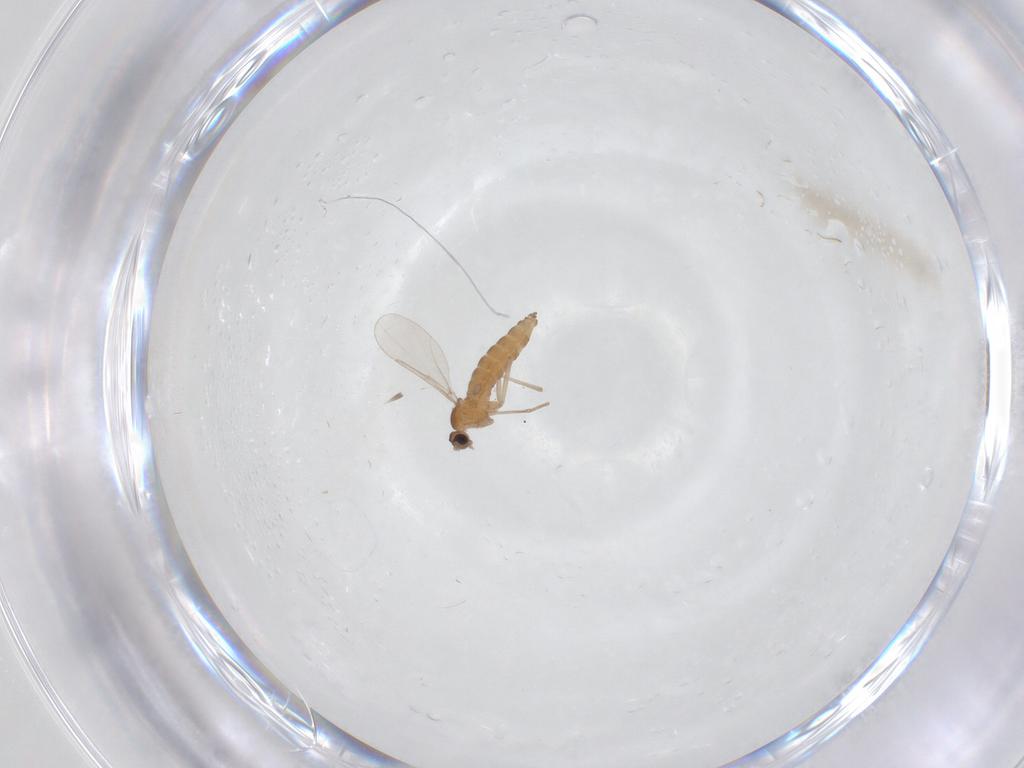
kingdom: Animalia
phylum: Arthropoda
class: Insecta
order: Diptera
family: Cecidomyiidae
